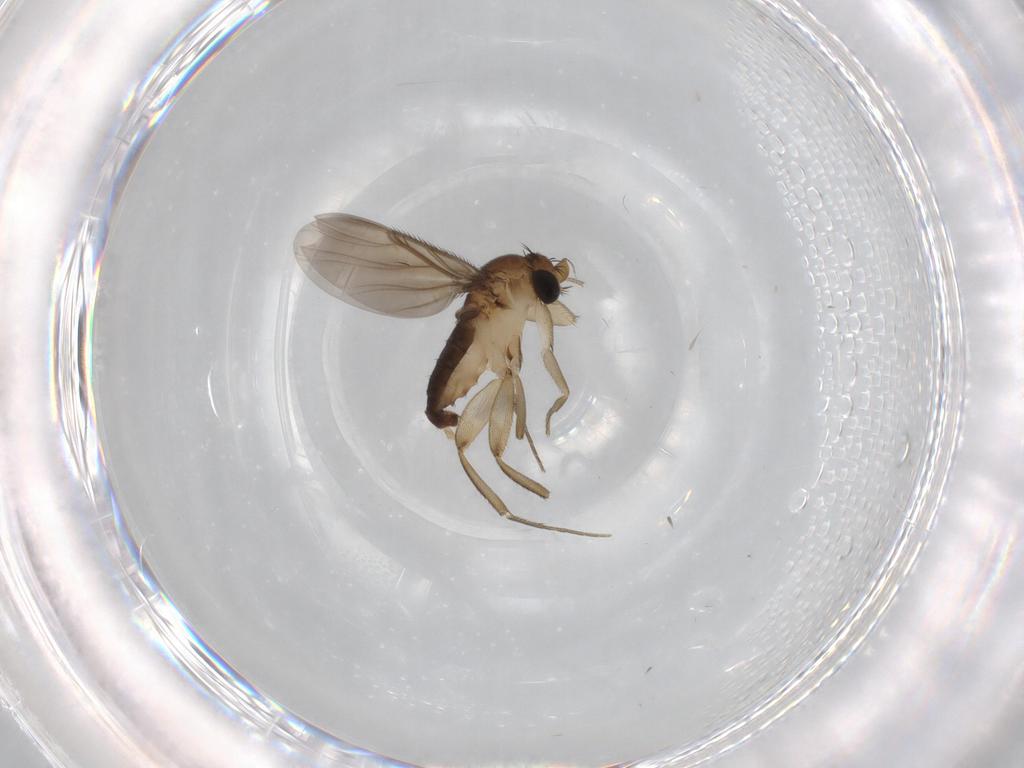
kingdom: Animalia
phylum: Arthropoda
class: Insecta
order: Diptera
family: Phoridae
